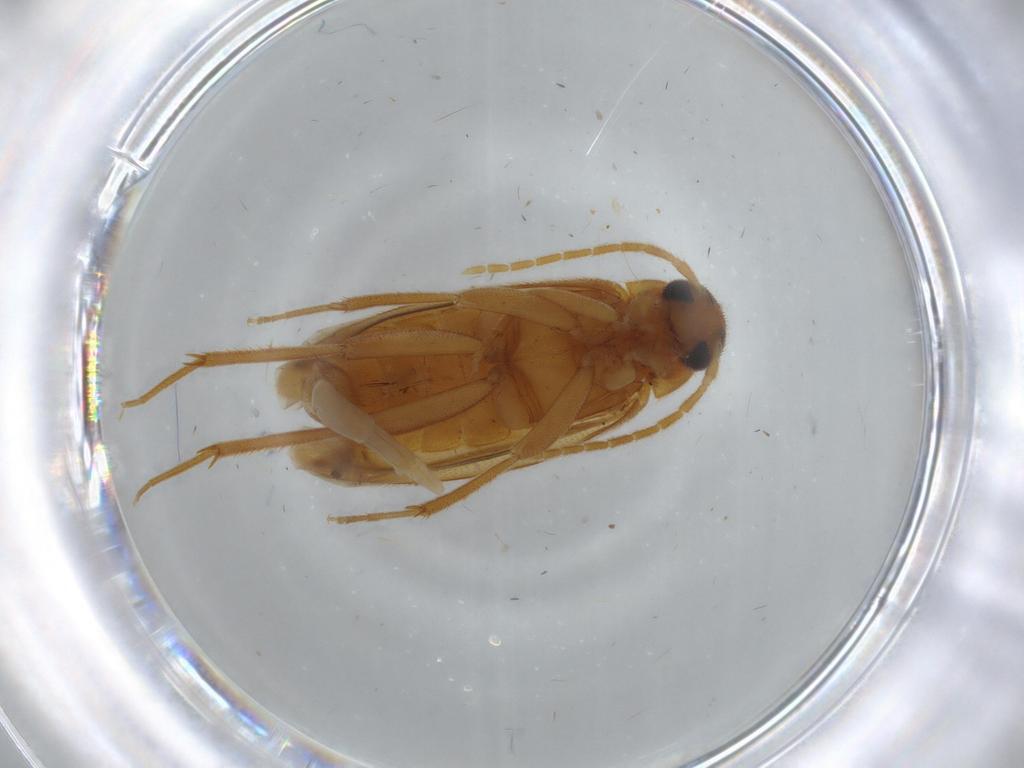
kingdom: Animalia
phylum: Arthropoda
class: Insecta
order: Coleoptera
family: Scraptiidae
